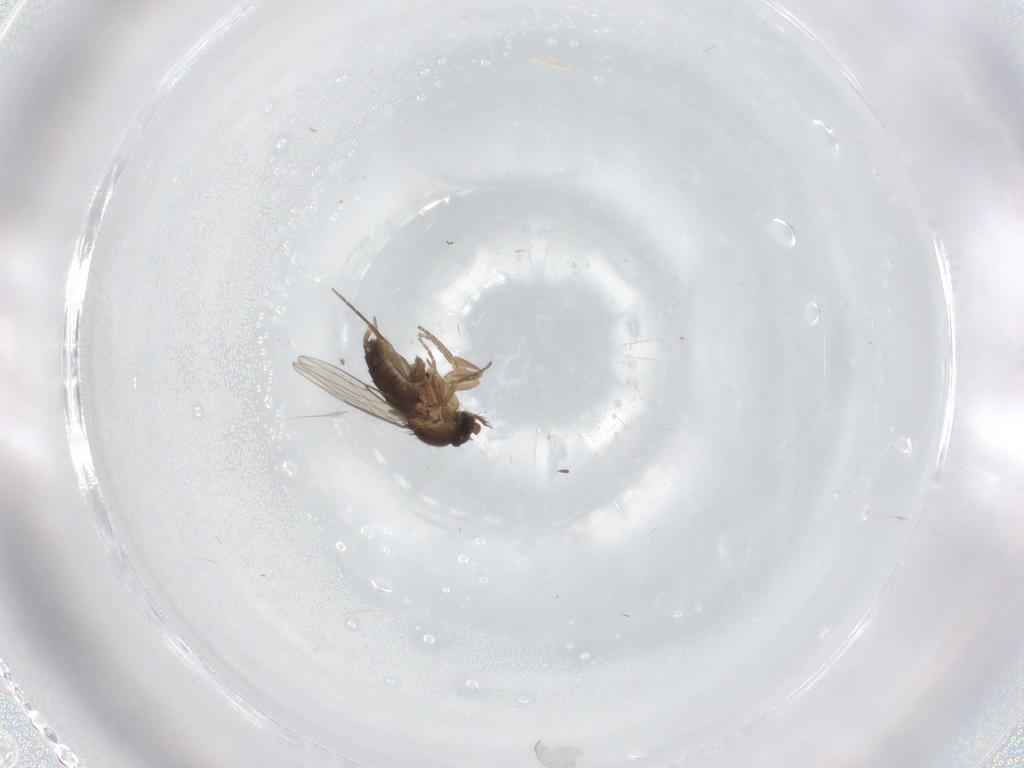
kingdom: Animalia
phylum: Arthropoda
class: Insecta
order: Diptera
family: Phoridae
